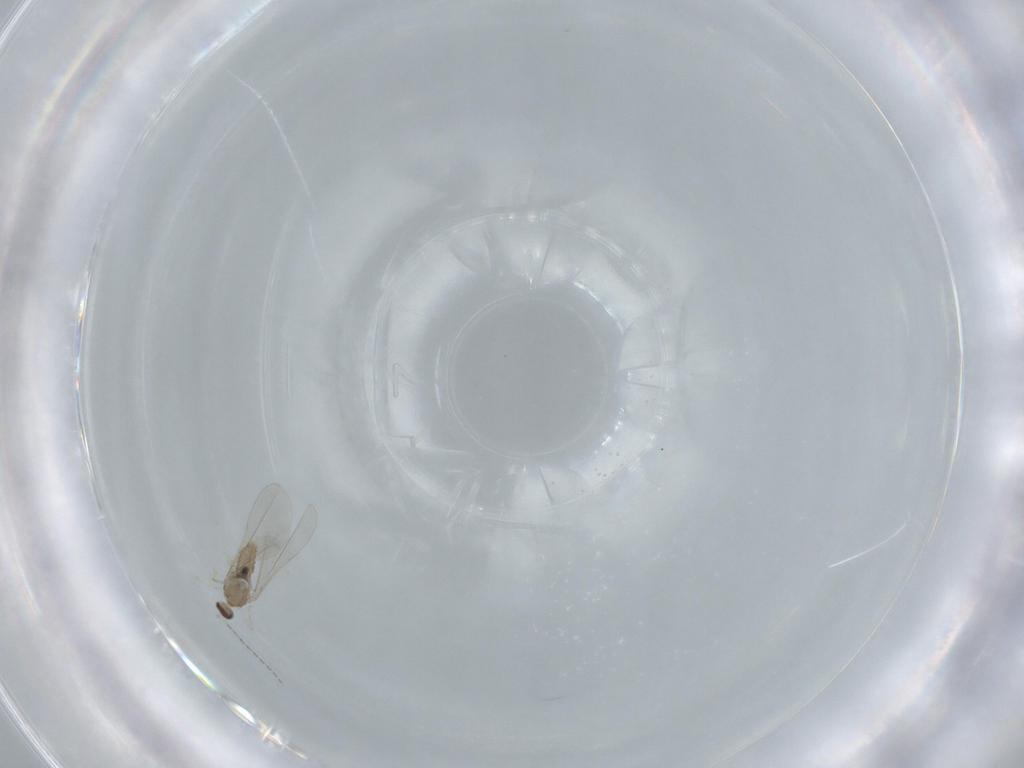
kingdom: Animalia
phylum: Arthropoda
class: Insecta
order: Diptera
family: Cecidomyiidae
